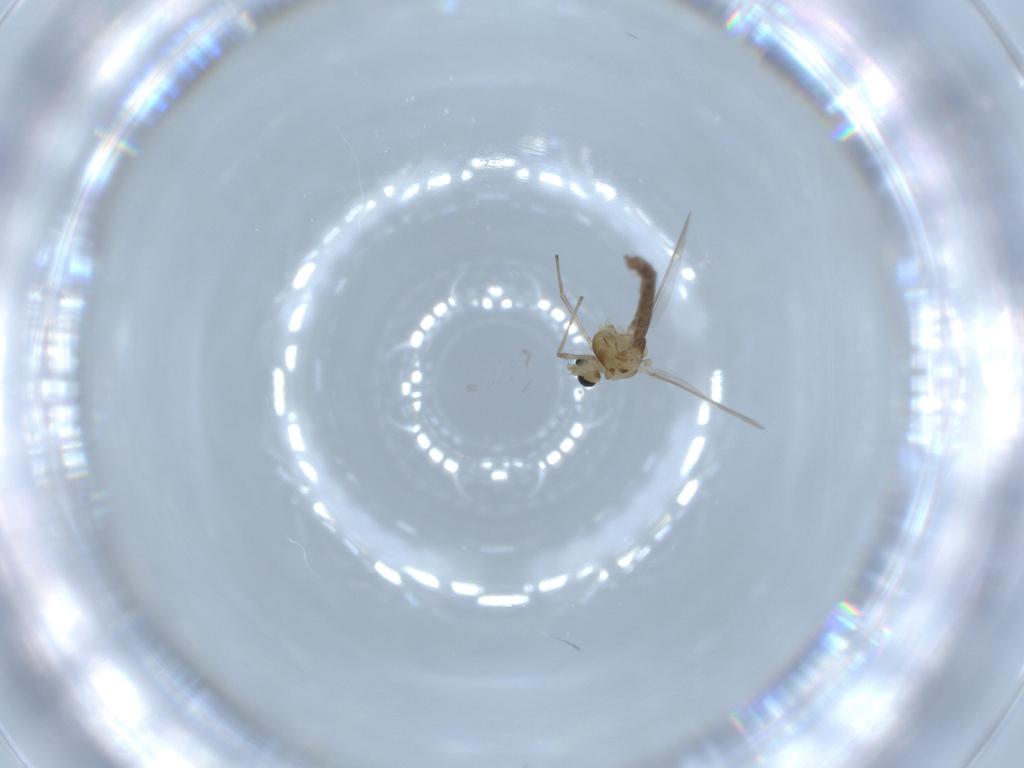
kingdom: Animalia
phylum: Arthropoda
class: Insecta
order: Diptera
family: Chironomidae
